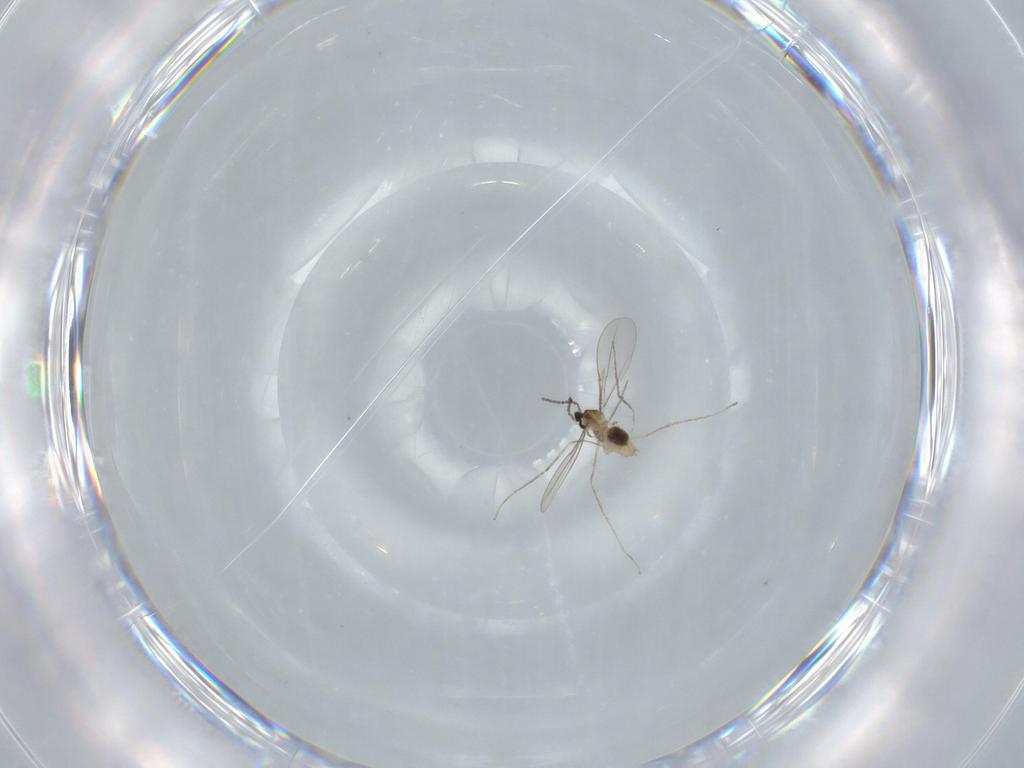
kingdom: Animalia
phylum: Arthropoda
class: Insecta
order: Diptera
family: Cecidomyiidae
